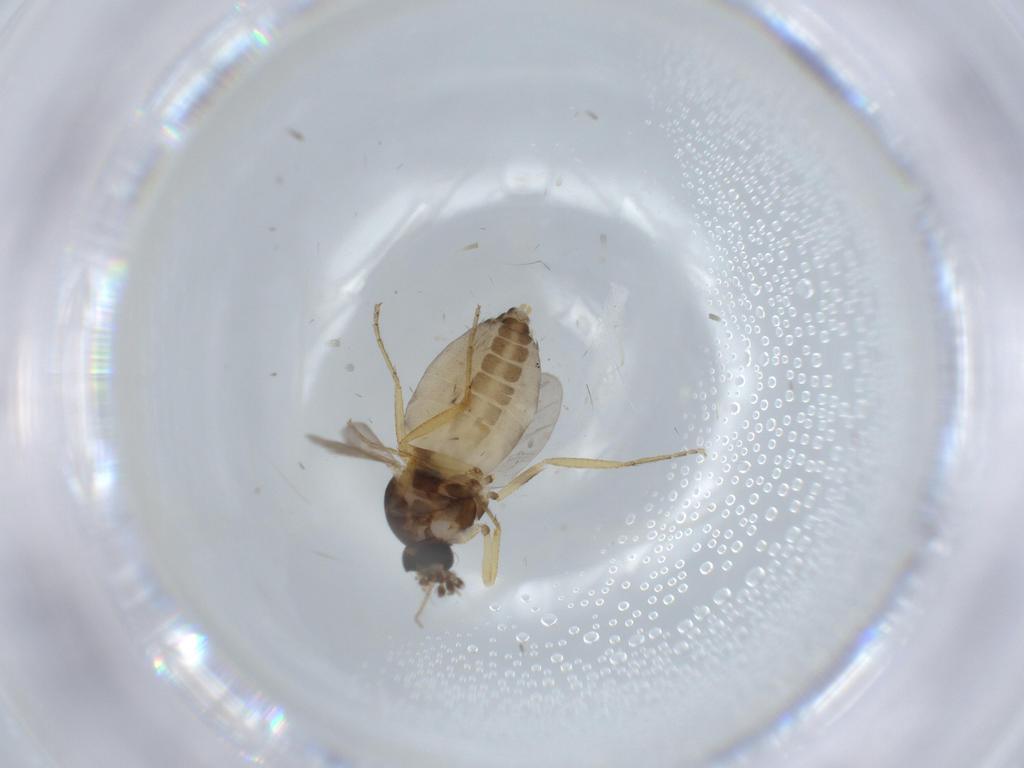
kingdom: Animalia
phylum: Arthropoda
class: Insecta
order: Diptera
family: Ceratopogonidae
